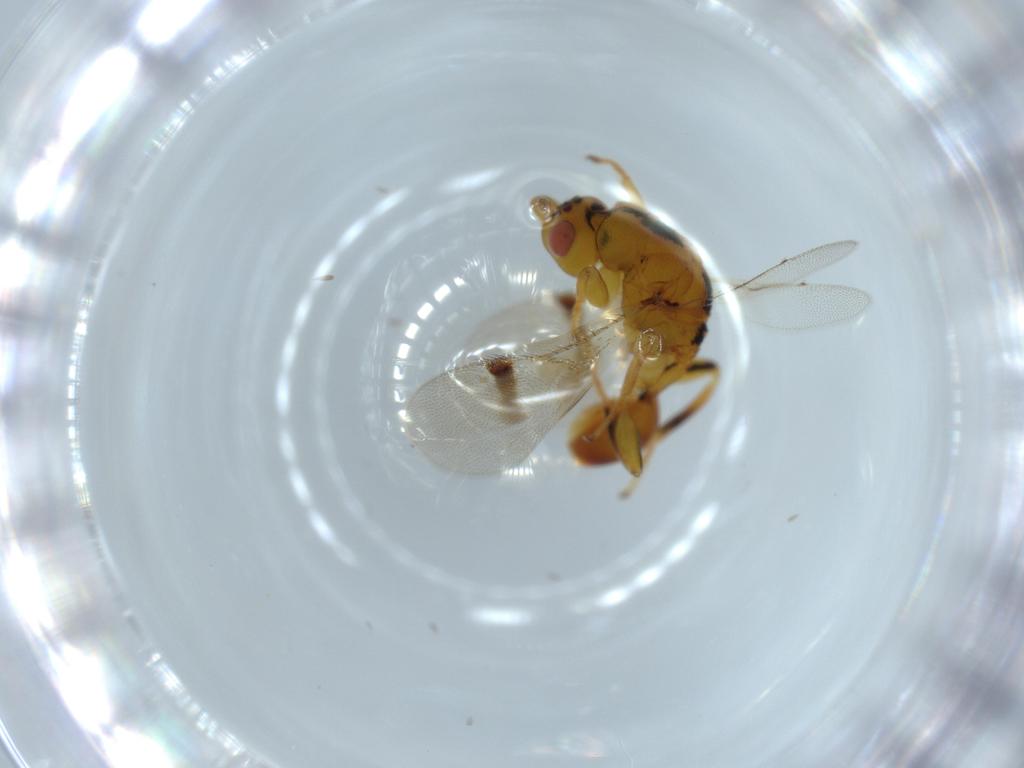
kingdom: Animalia
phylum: Arthropoda
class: Insecta
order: Hymenoptera
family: Eurytomidae
